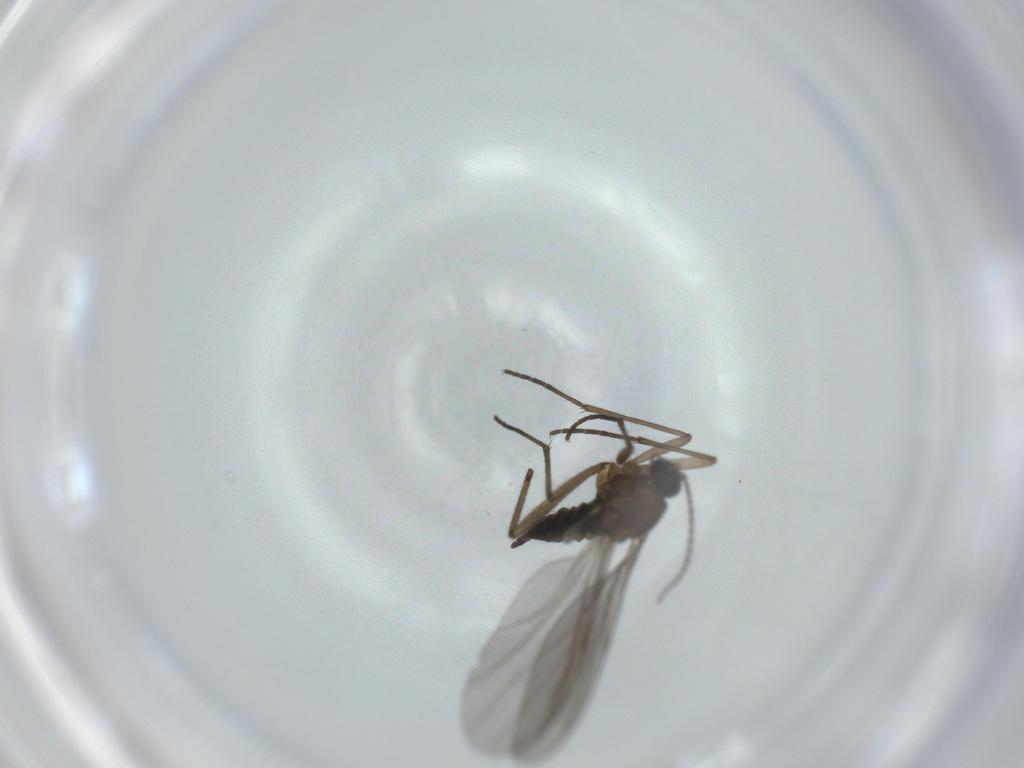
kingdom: Animalia
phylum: Arthropoda
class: Insecta
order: Diptera
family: Sciaridae
